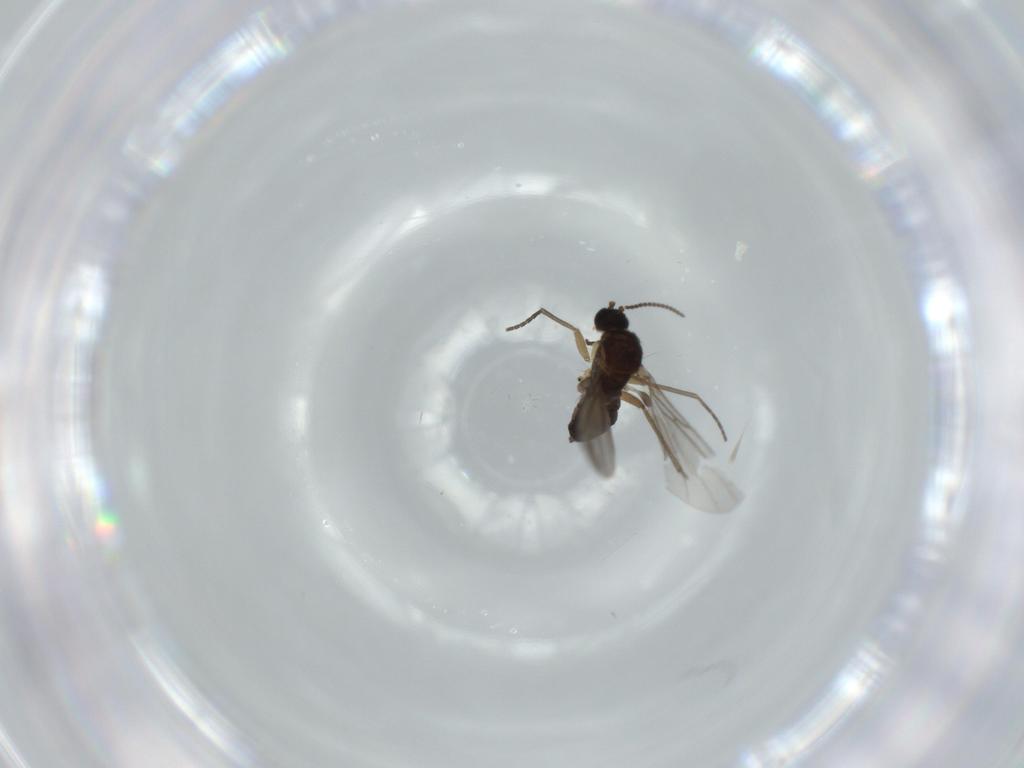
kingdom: Animalia
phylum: Arthropoda
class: Insecta
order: Diptera
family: Sciaridae
